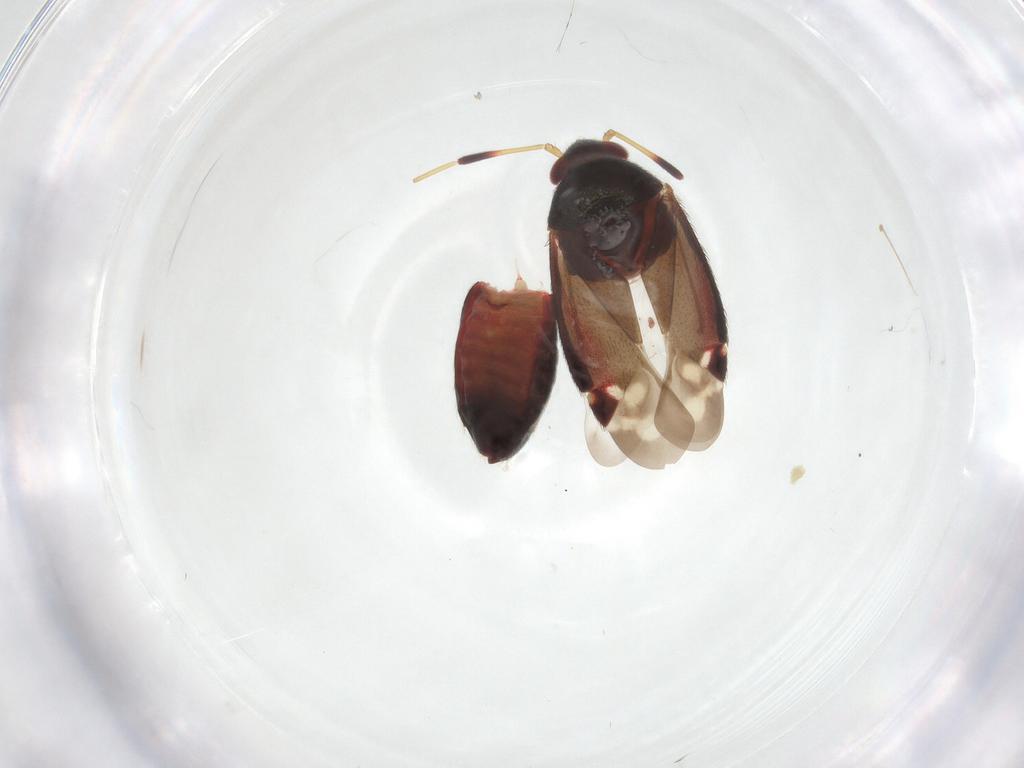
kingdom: Animalia
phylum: Arthropoda
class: Insecta
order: Hemiptera
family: Miridae
